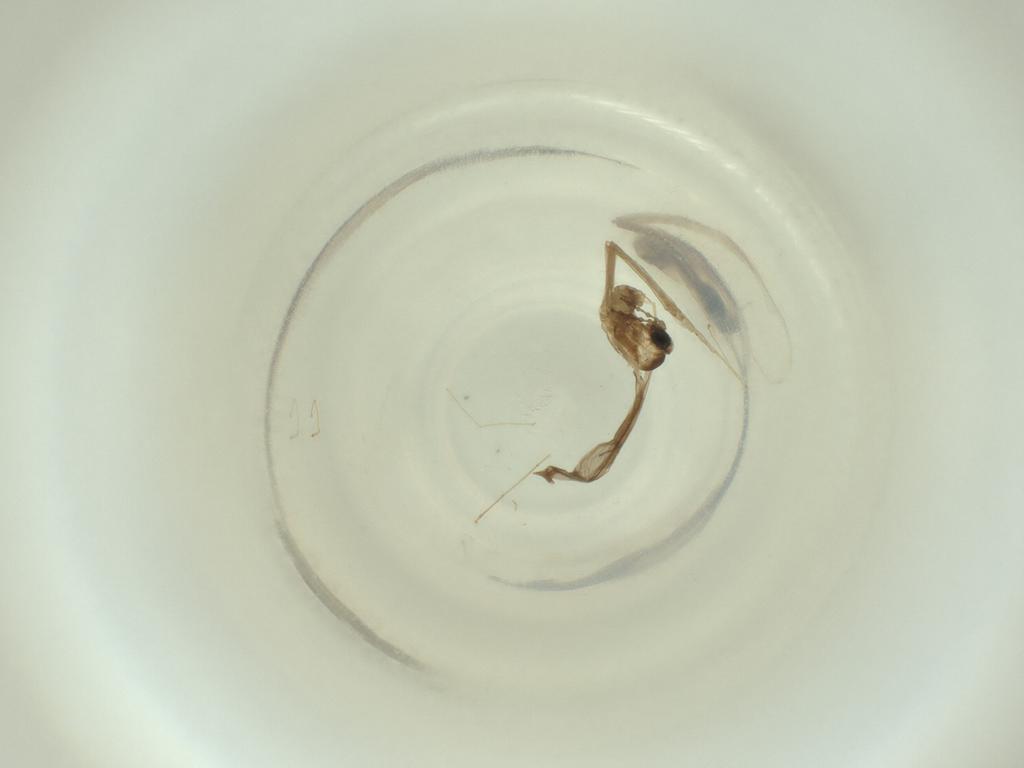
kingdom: Animalia
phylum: Arthropoda
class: Insecta
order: Diptera
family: Cecidomyiidae
